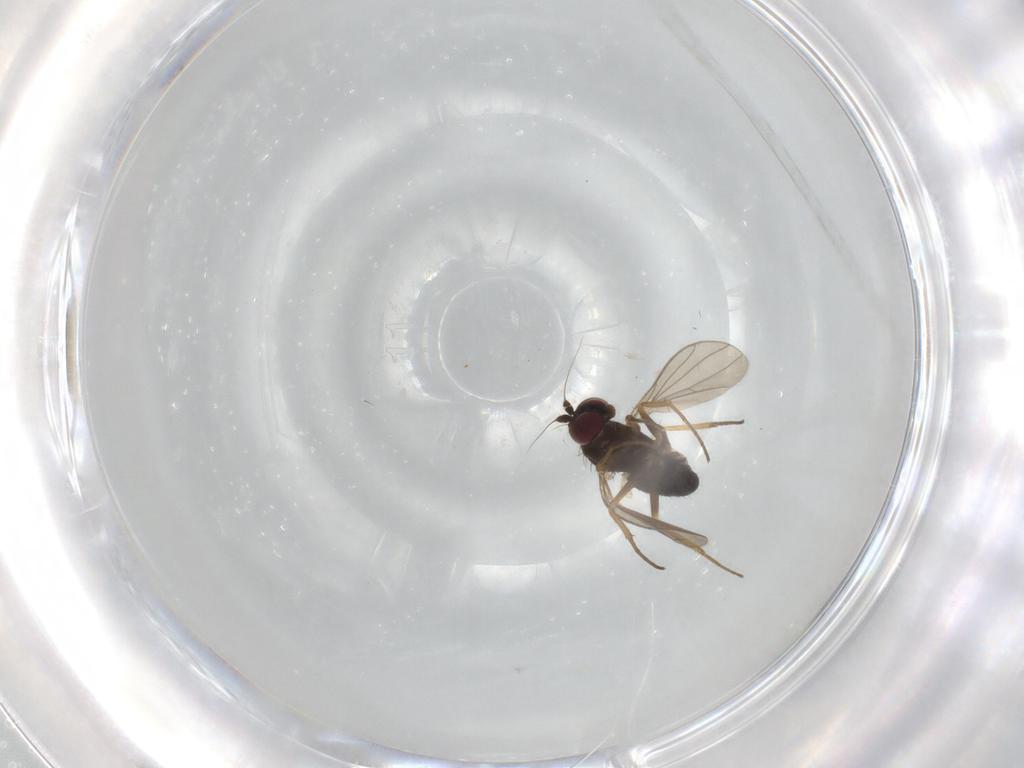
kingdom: Animalia
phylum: Arthropoda
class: Insecta
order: Diptera
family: Dolichopodidae
